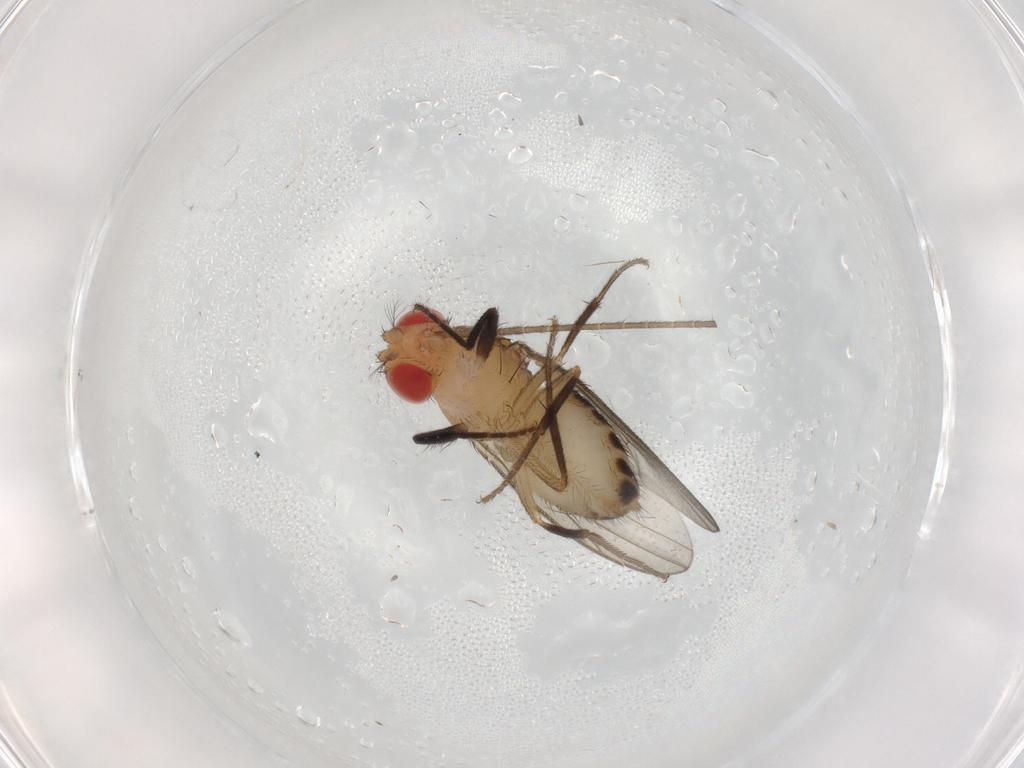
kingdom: Animalia
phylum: Arthropoda
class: Insecta
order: Diptera
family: Drosophilidae
